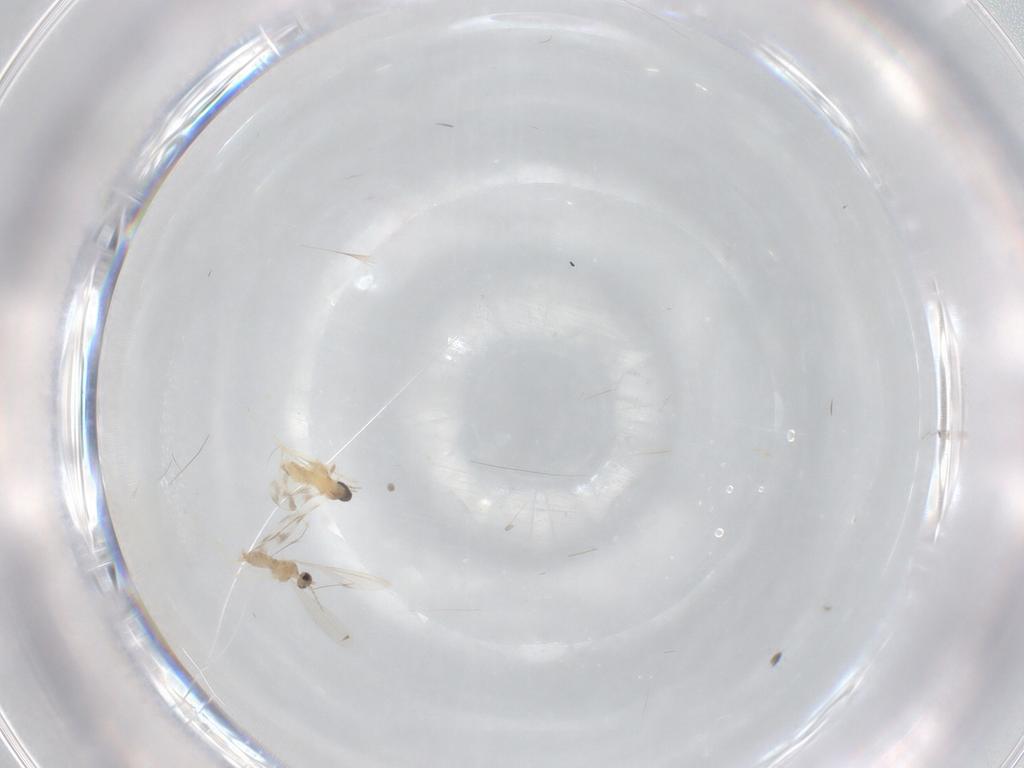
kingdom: Animalia
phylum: Arthropoda
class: Insecta
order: Diptera
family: Cecidomyiidae
